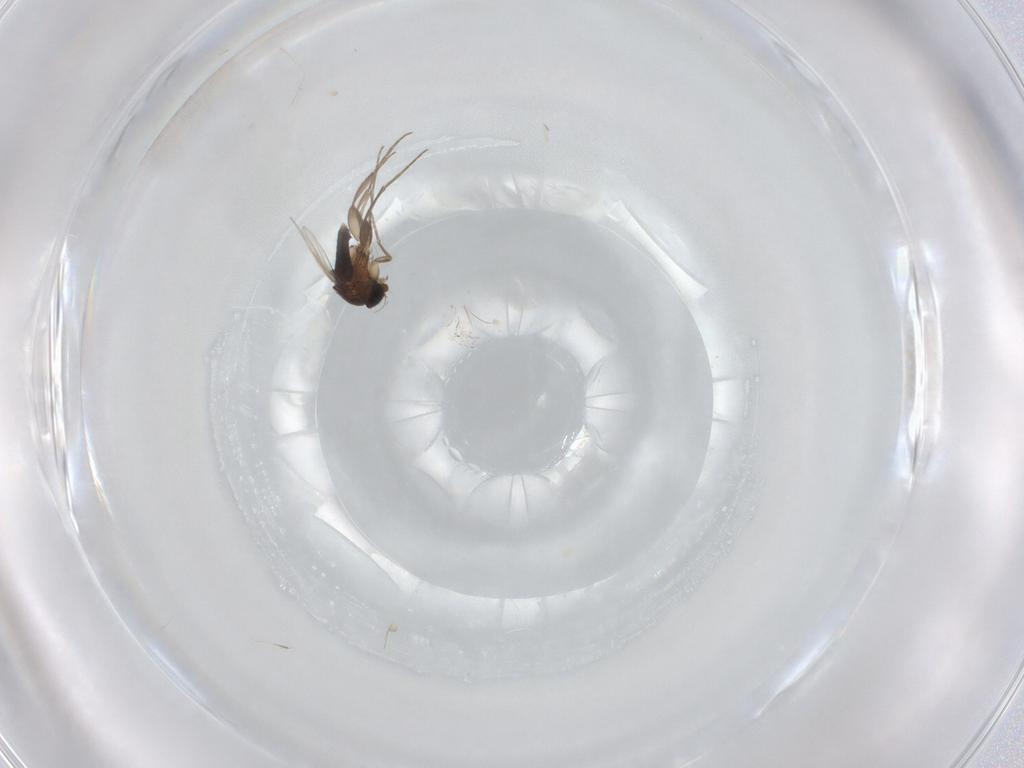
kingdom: Animalia
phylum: Arthropoda
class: Insecta
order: Diptera
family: Phoridae
